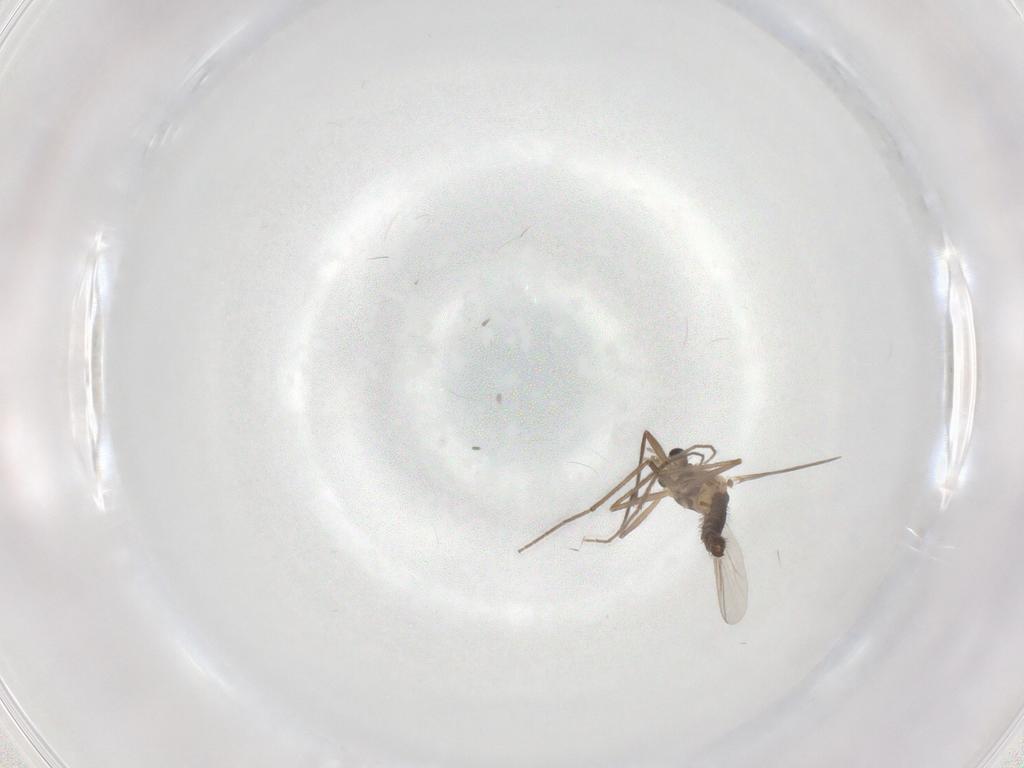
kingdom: Animalia
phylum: Arthropoda
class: Insecta
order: Diptera
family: Chironomidae
